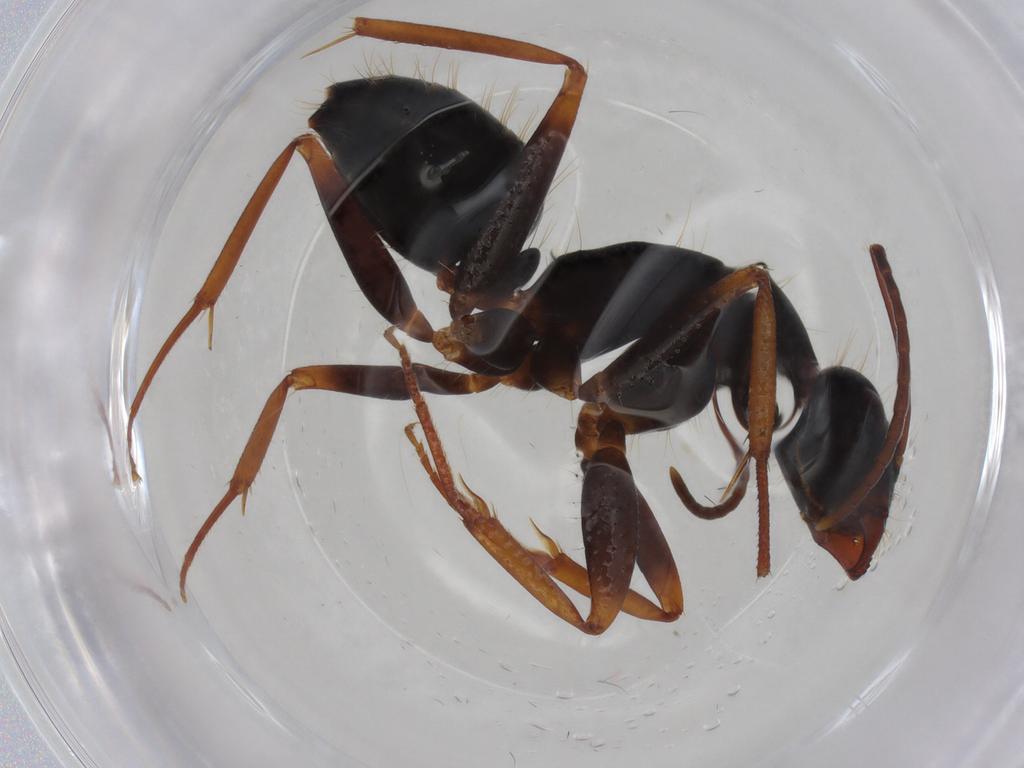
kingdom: Animalia
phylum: Arthropoda
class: Insecta
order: Hymenoptera
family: Formicidae
